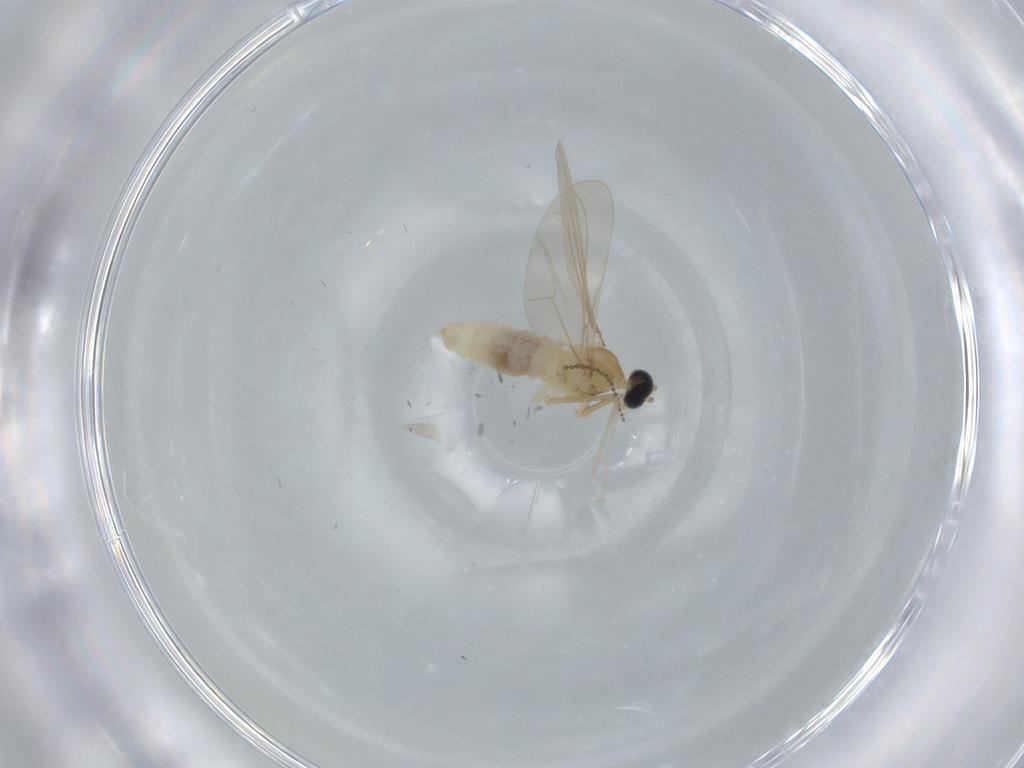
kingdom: Animalia
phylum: Arthropoda
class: Insecta
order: Diptera
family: Cecidomyiidae
